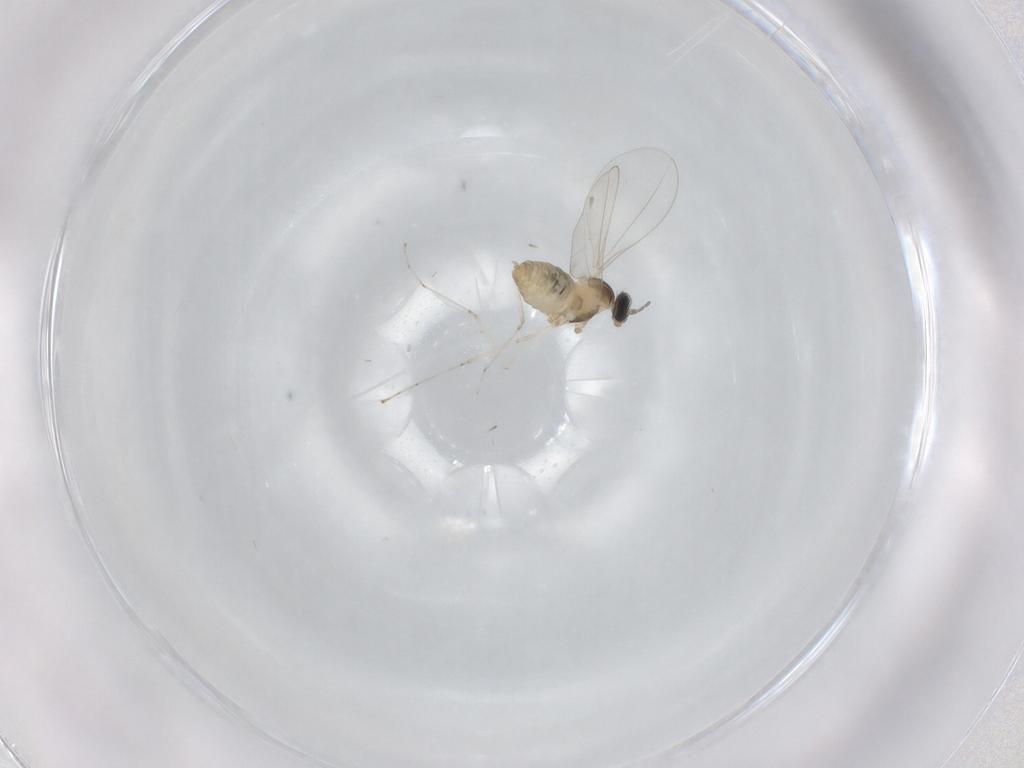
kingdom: Animalia
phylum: Arthropoda
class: Insecta
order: Diptera
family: Cecidomyiidae
